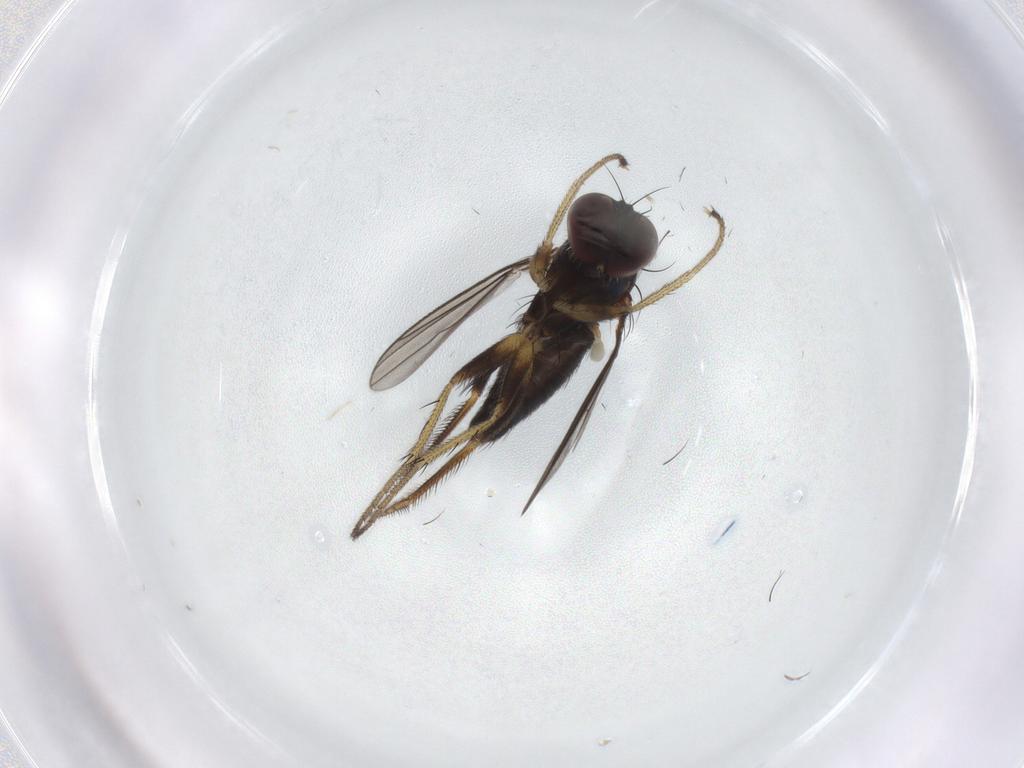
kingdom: Animalia
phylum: Arthropoda
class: Insecta
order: Diptera
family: Dolichopodidae
